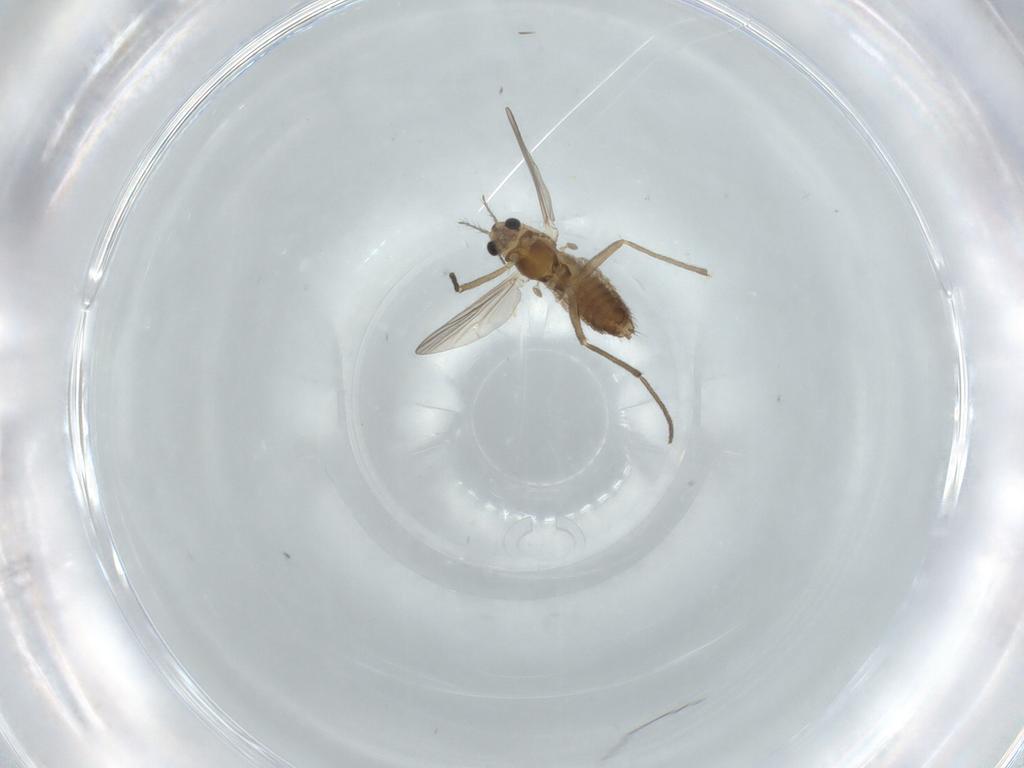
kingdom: Animalia
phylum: Arthropoda
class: Insecta
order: Diptera
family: Chironomidae
